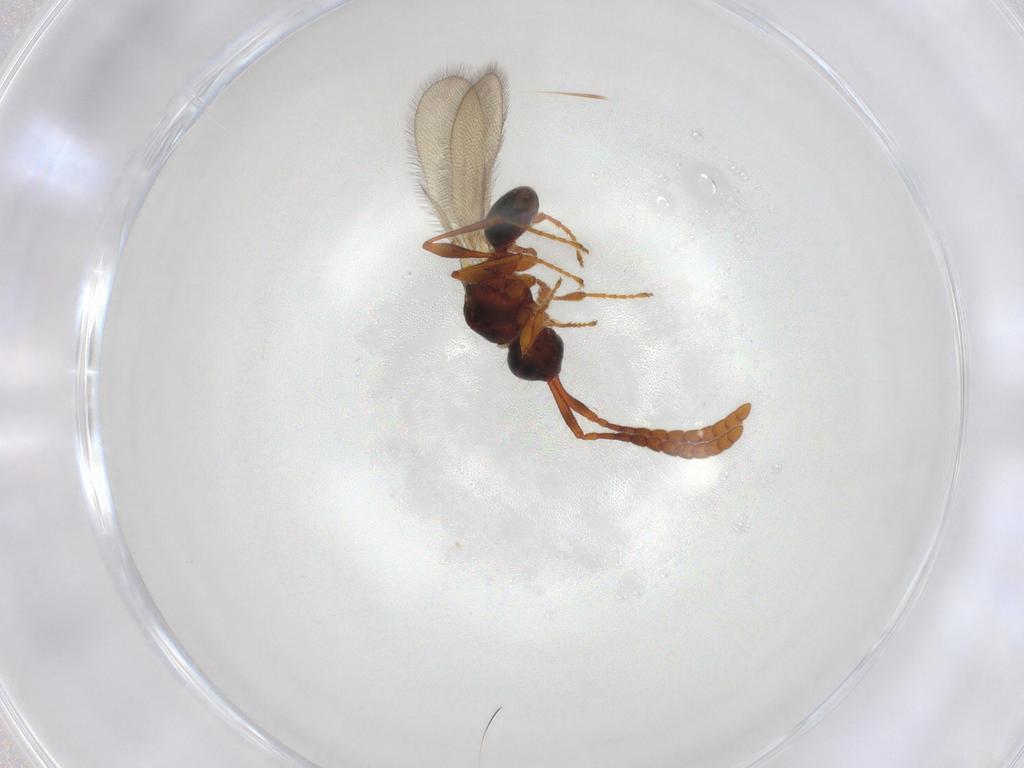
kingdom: Animalia
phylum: Arthropoda
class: Insecta
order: Hymenoptera
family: Diapriidae
